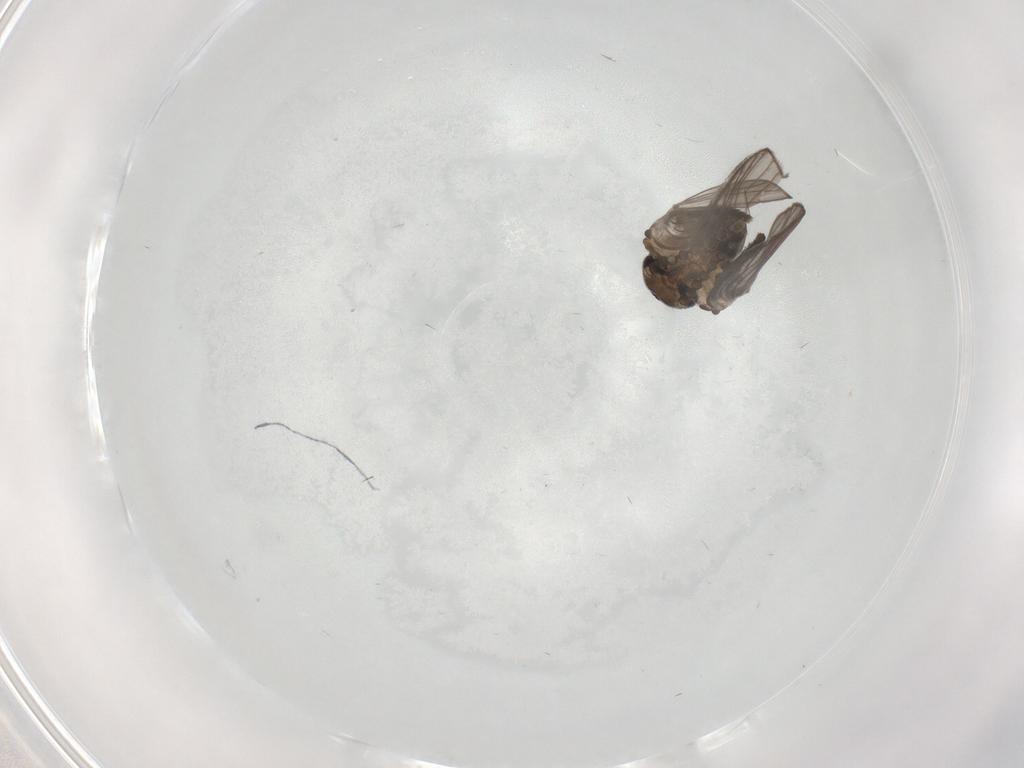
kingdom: Animalia
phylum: Arthropoda
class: Insecta
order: Diptera
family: Psychodidae
